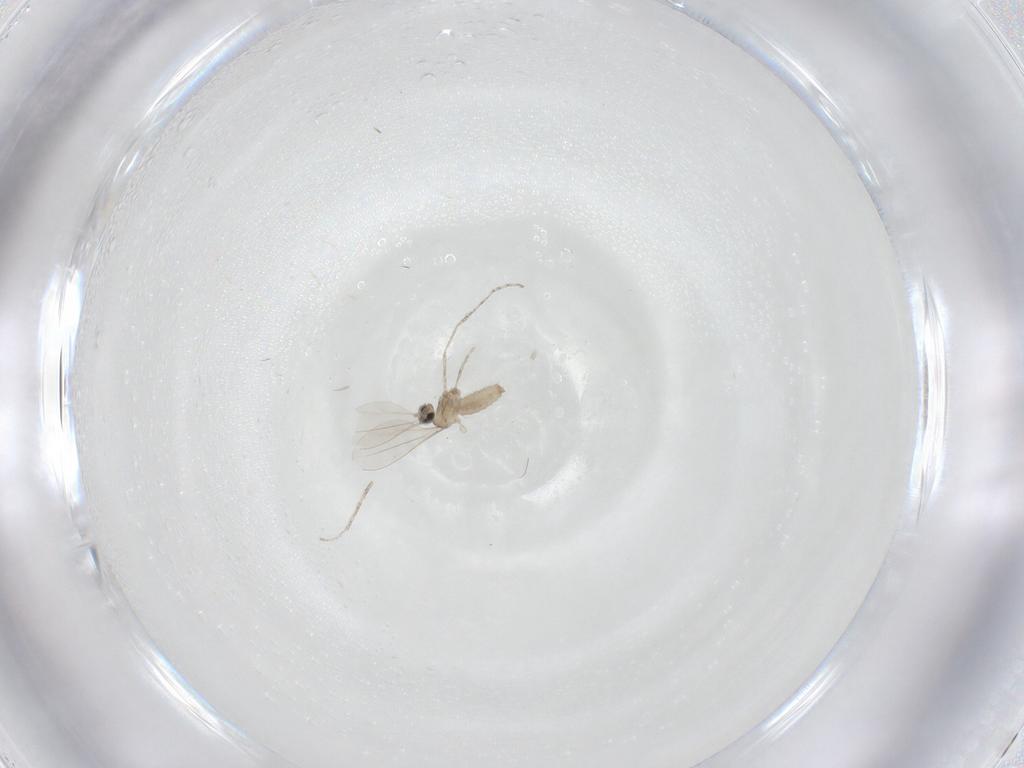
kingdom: Animalia
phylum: Arthropoda
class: Insecta
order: Diptera
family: Cecidomyiidae
